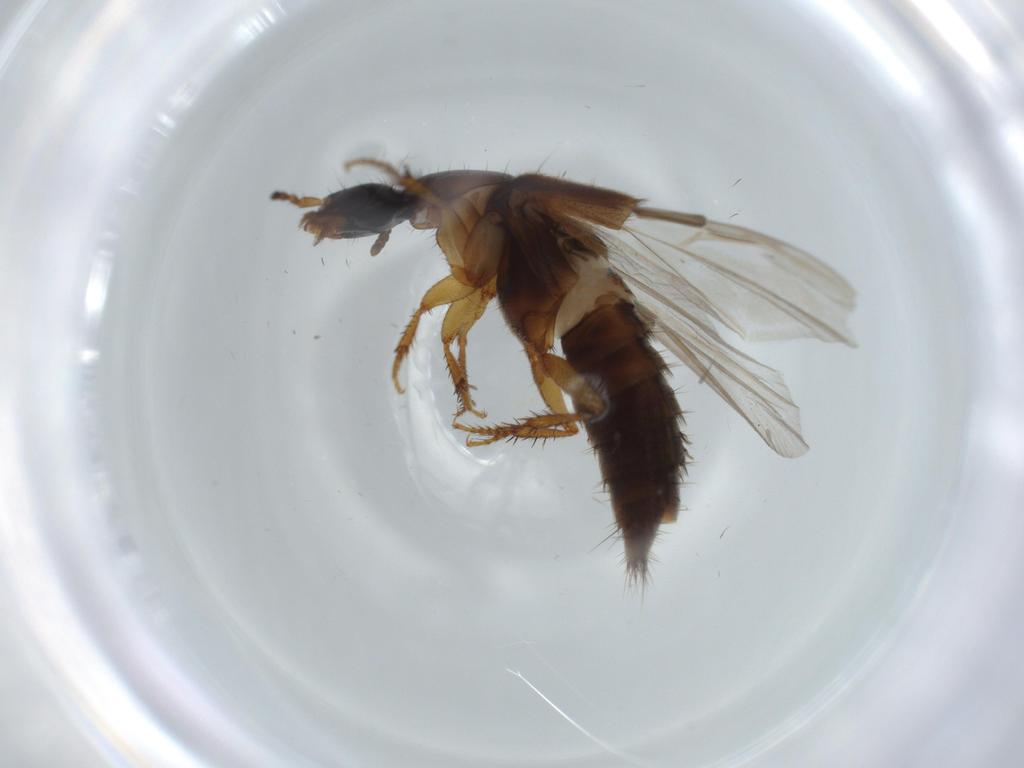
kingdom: Animalia
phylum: Arthropoda
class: Insecta
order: Coleoptera
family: Staphylinidae
